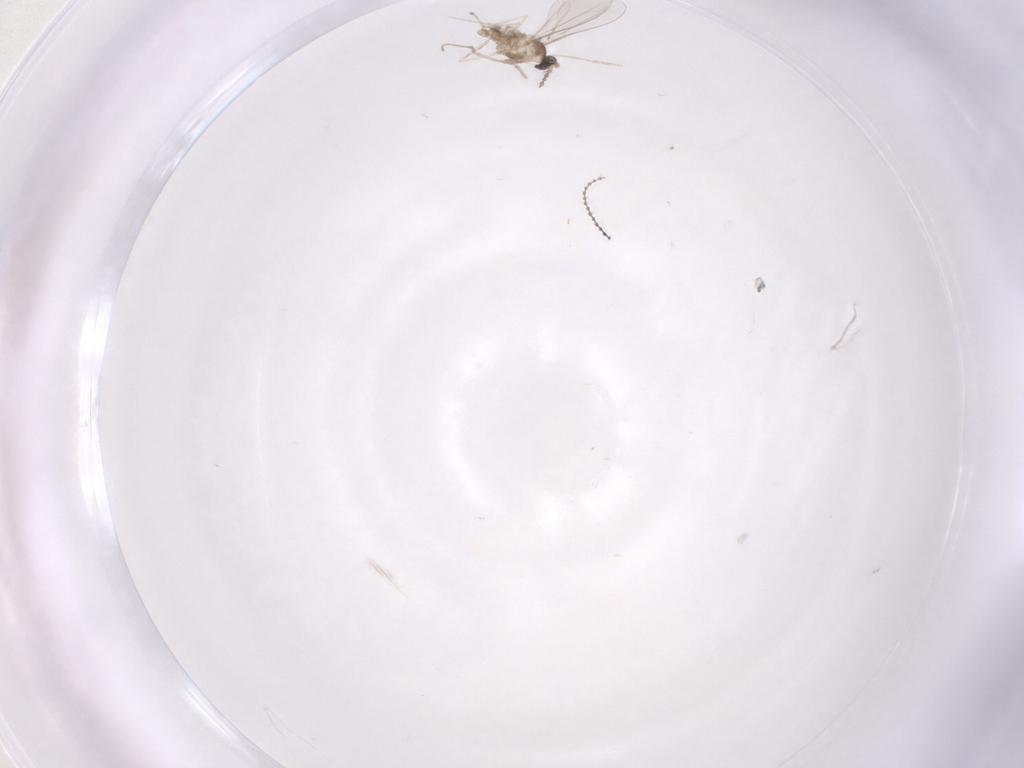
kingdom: Animalia
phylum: Arthropoda
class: Insecta
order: Diptera
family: Cecidomyiidae
